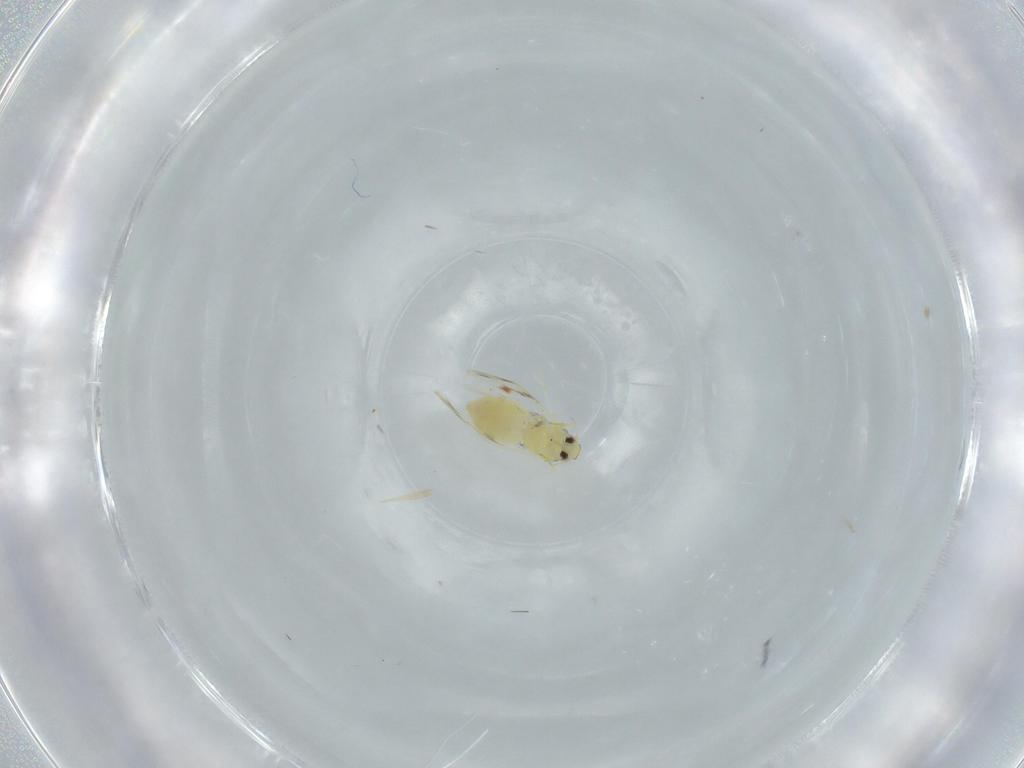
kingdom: Animalia
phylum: Arthropoda
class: Insecta
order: Hemiptera
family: Aleyrodidae
